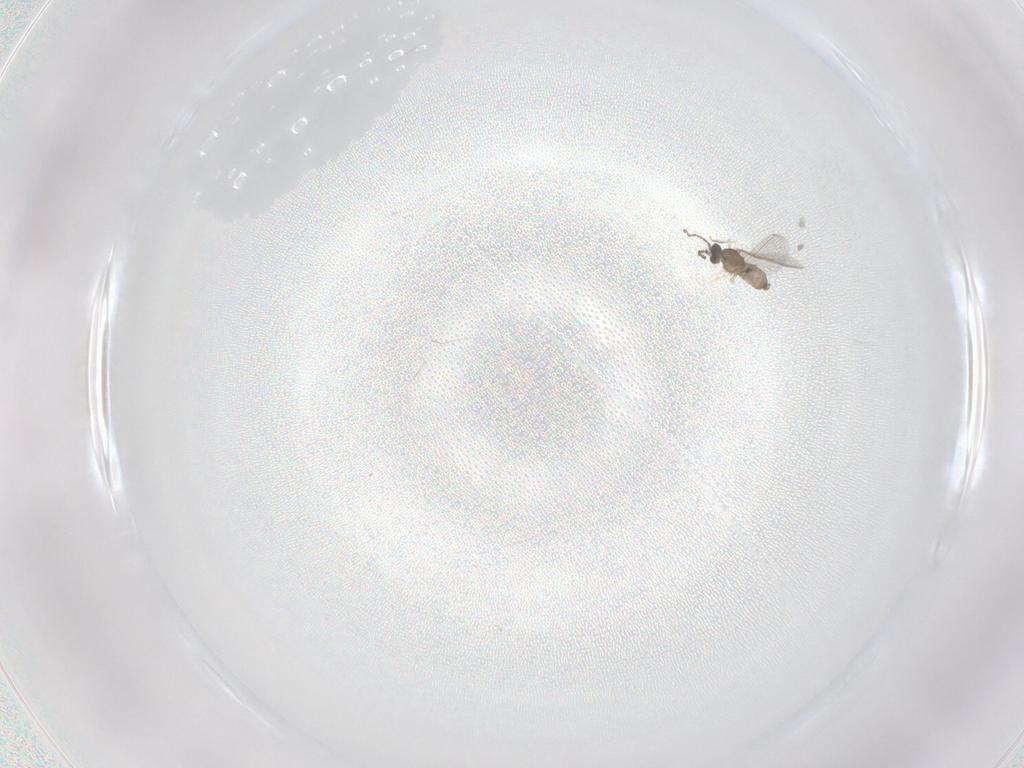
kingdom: Animalia
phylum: Arthropoda
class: Insecta
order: Diptera
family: Cecidomyiidae
